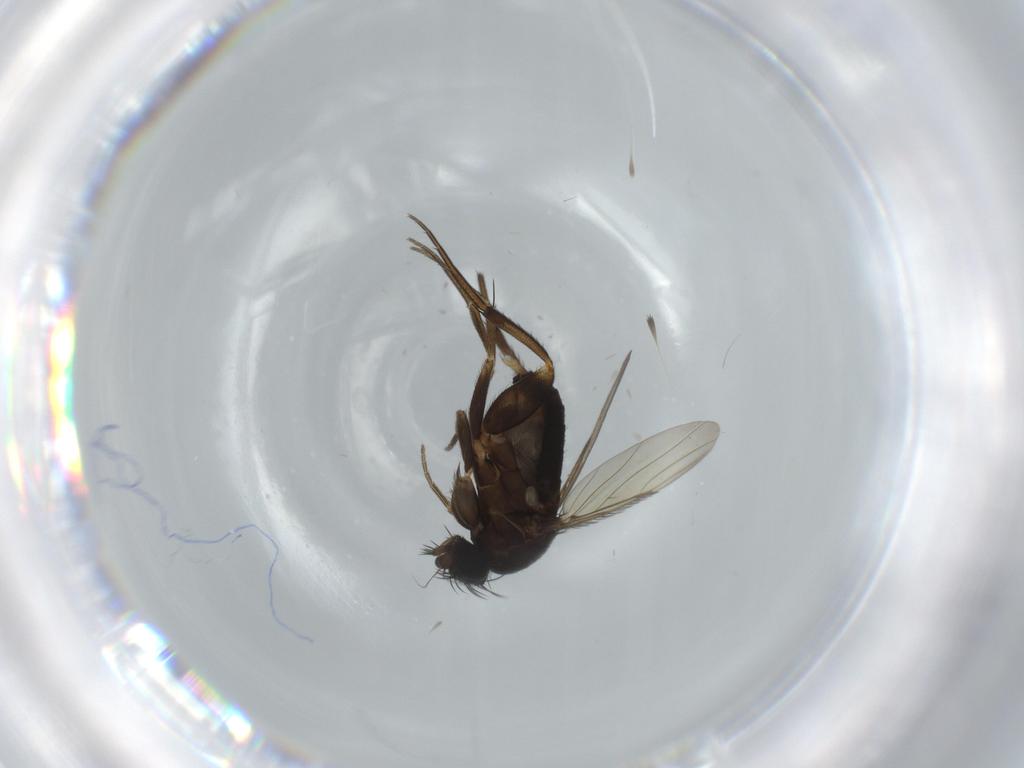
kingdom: Animalia
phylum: Arthropoda
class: Insecta
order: Diptera
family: Phoridae
